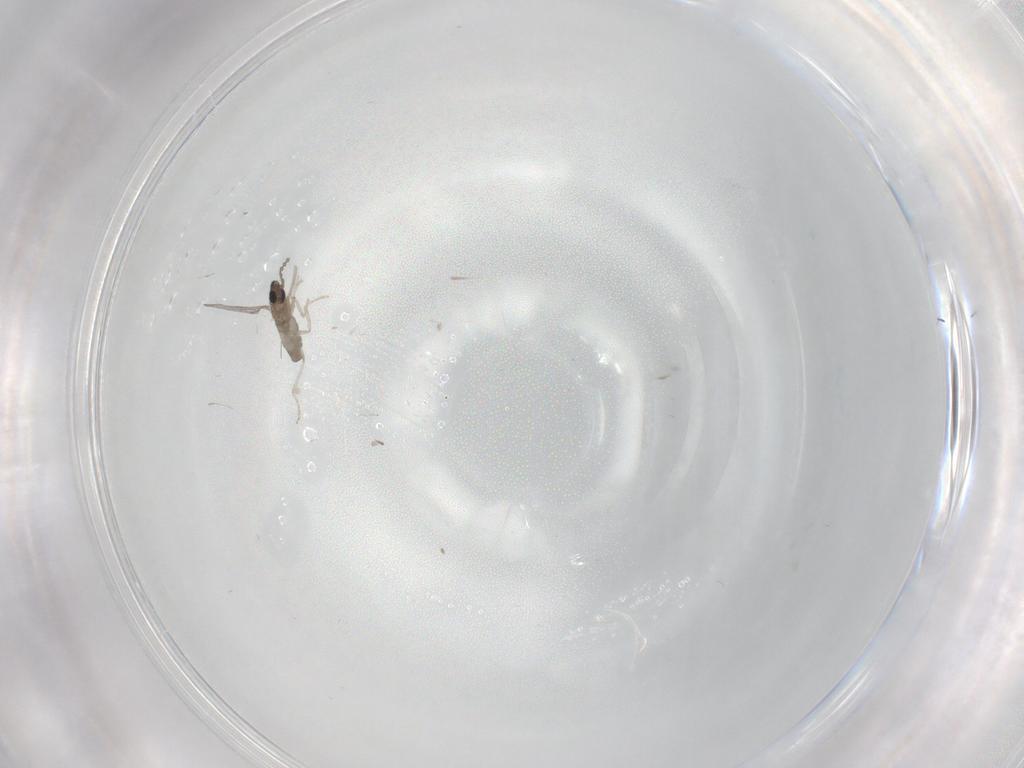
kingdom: Animalia
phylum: Arthropoda
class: Insecta
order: Diptera
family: Cecidomyiidae
